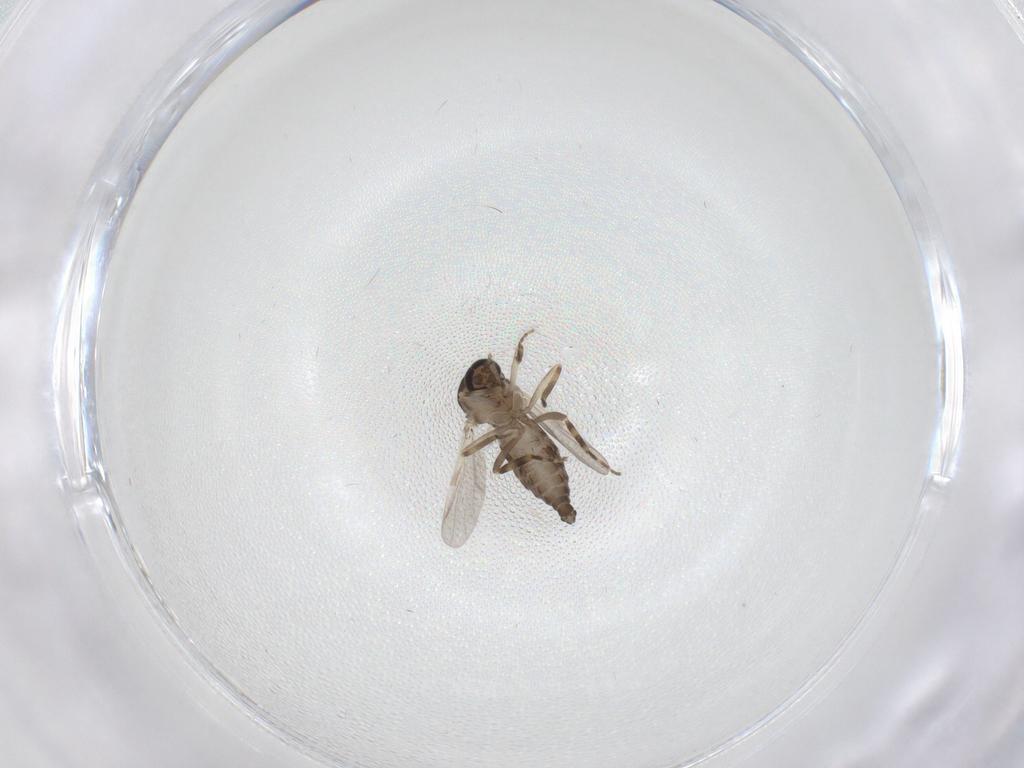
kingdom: Animalia
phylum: Arthropoda
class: Insecta
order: Diptera
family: Ceratopogonidae
